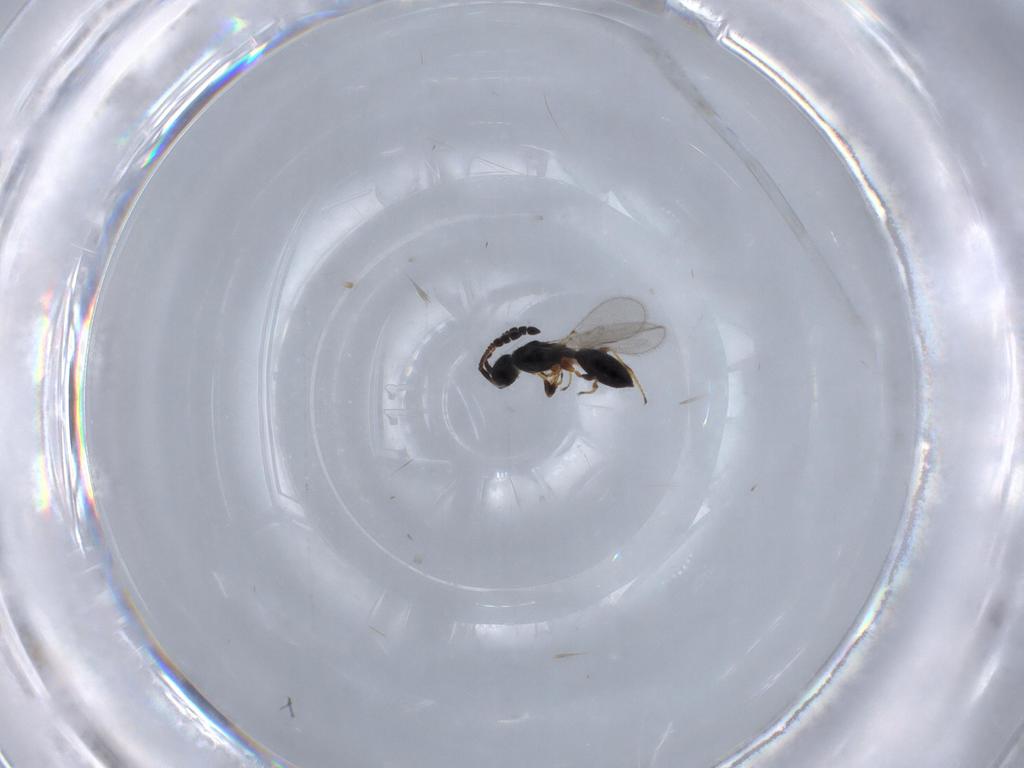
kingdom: Animalia
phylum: Arthropoda
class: Insecta
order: Hymenoptera
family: Diapriidae
